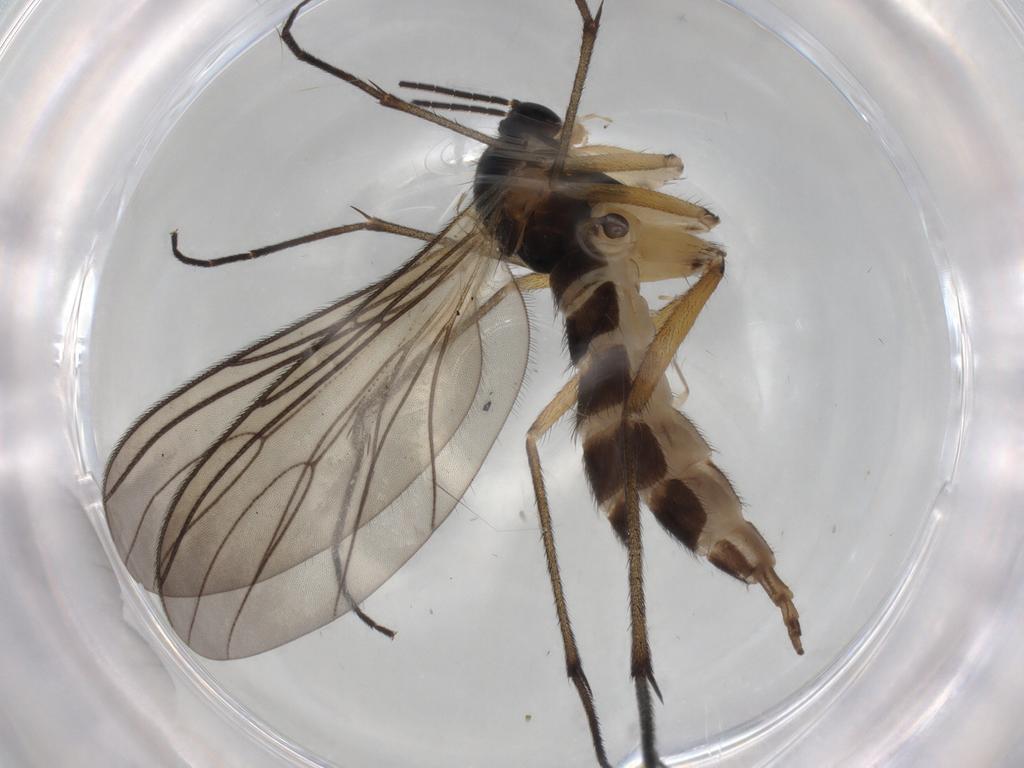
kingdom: Animalia
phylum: Arthropoda
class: Insecta
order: Diptera
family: Sciaridae
